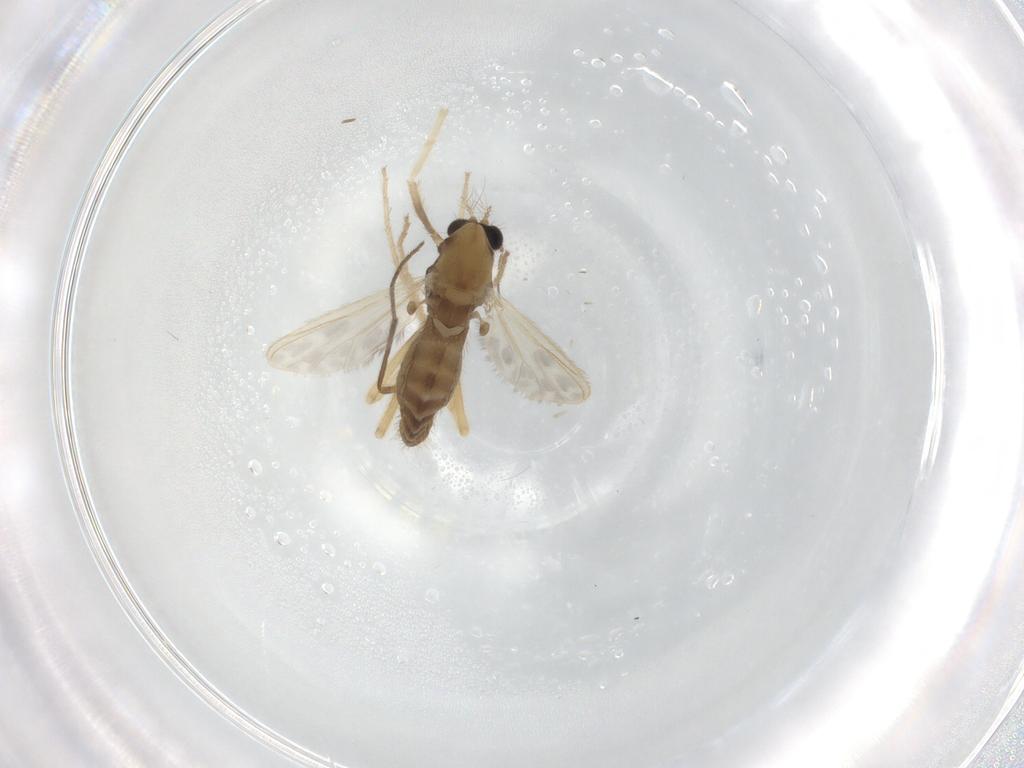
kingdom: Animalia
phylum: Arthropoda
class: Insecta
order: Diptera
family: Chironomidae
